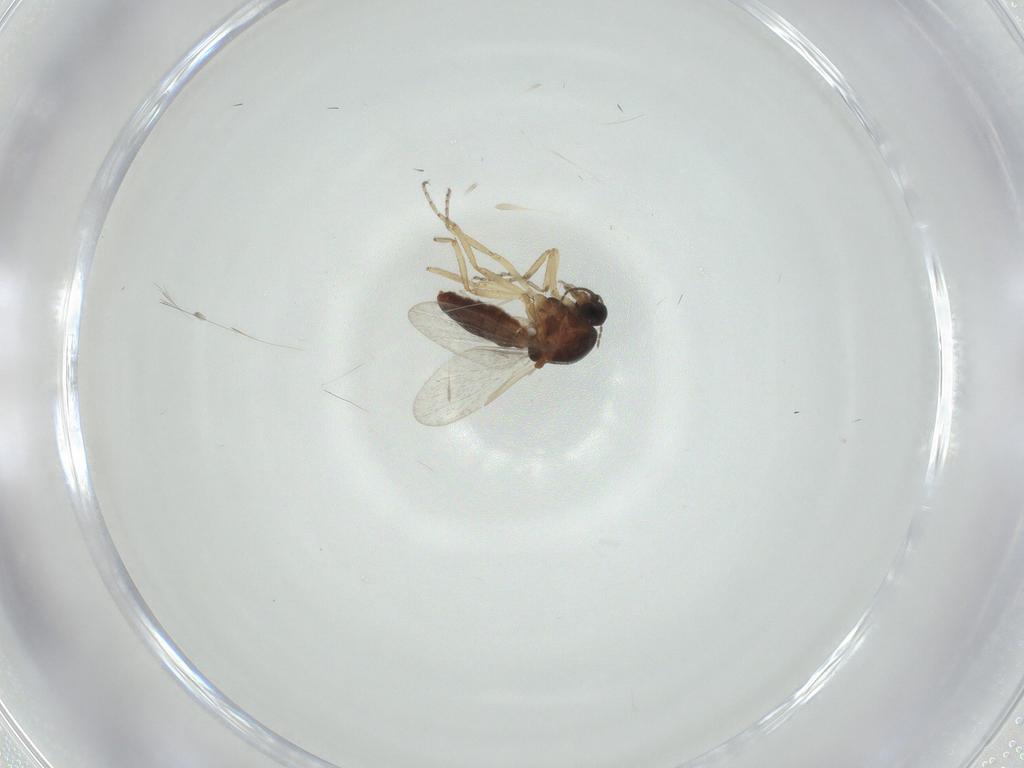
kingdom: Animalia
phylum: Arthropoda
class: Insecta
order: Diptera
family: Ceratopogonidae
